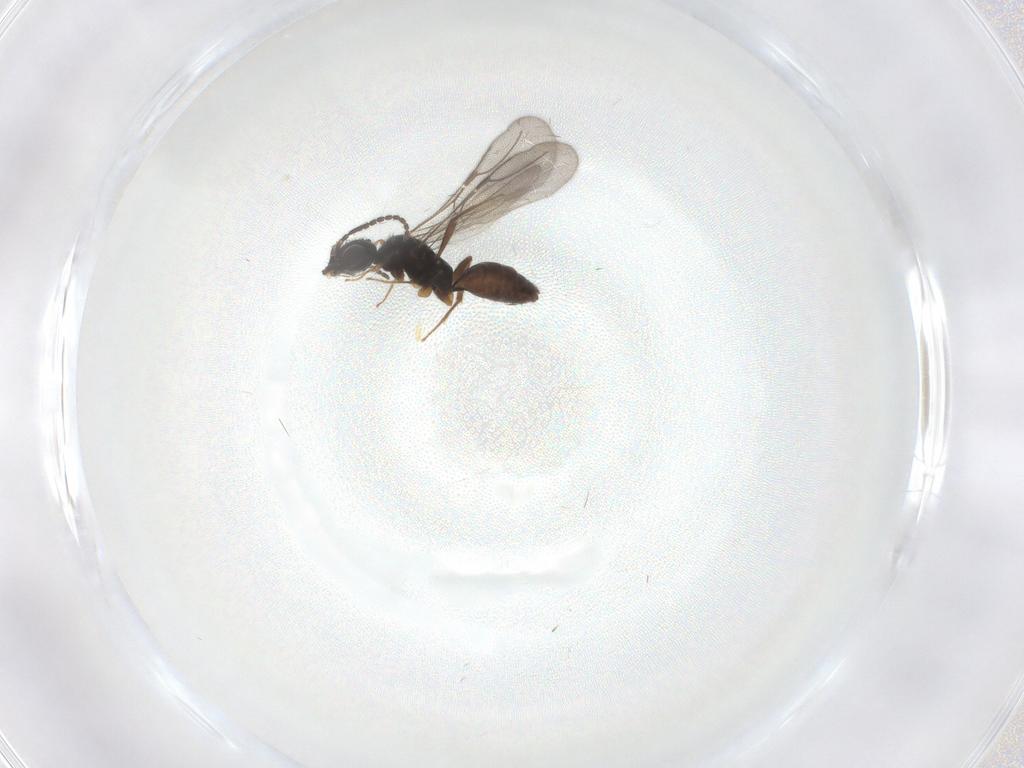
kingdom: Animalia
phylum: Arthropoda
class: Insecta
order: Hymenoptera
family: Bethylidae
